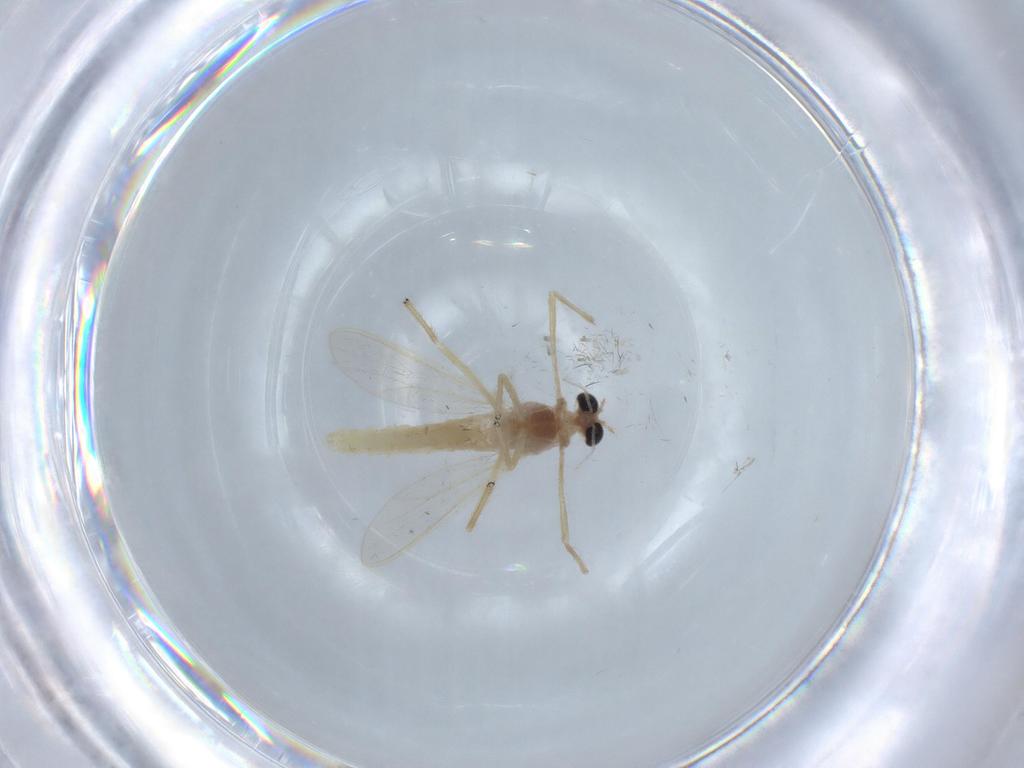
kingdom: Animalia
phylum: Arthropoda
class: Insecta
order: Diptera
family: Chironomidae
